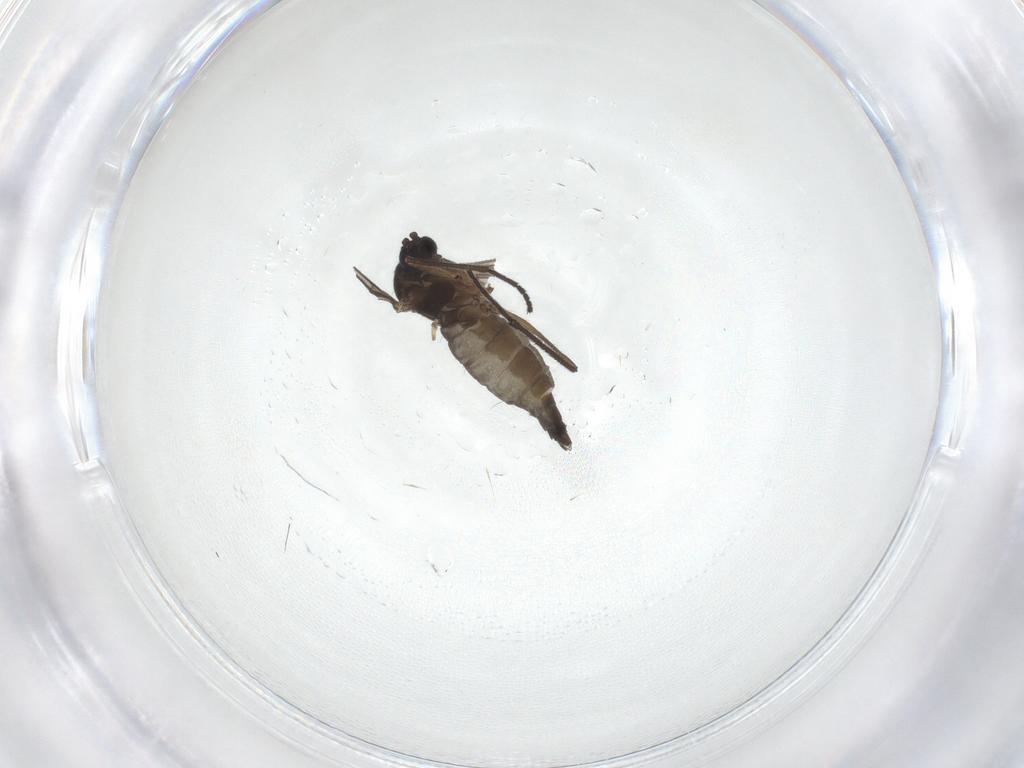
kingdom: Animalia
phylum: Arthropoda
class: Insecta
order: Diptera
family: Sciaridae
